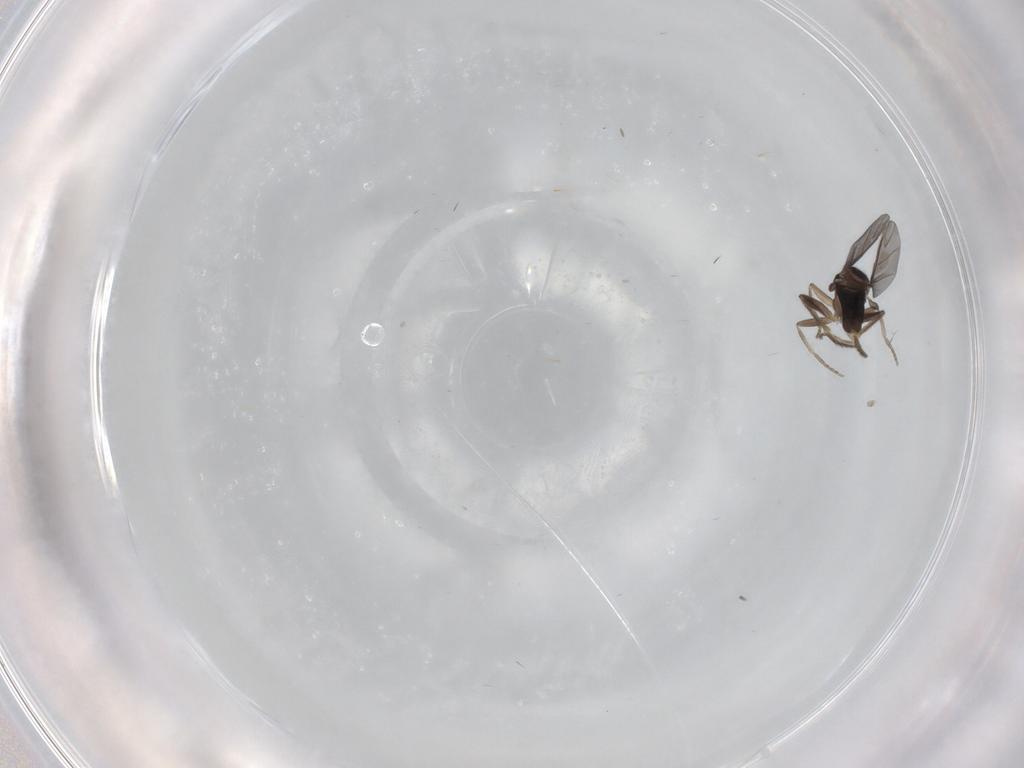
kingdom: Animalia
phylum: Arthropoda
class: Insecta
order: Diptera
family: Cecidomyiidae
